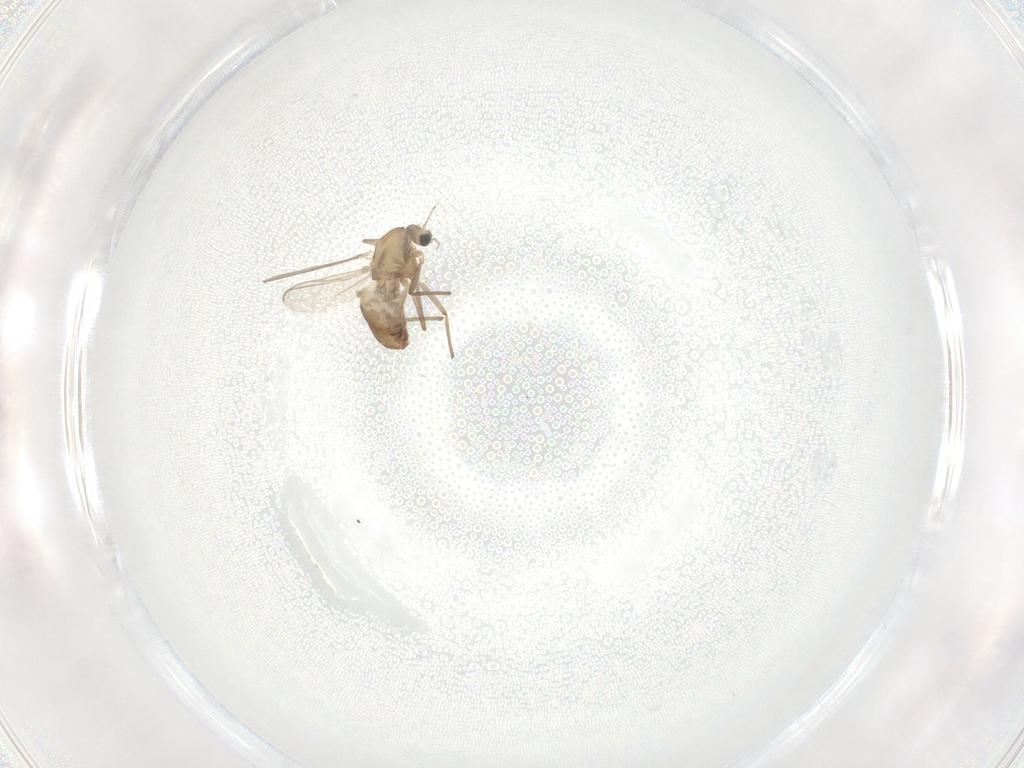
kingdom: Animalia
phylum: Arthropoda
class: Insecta
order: Diptera
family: Chironomidae
